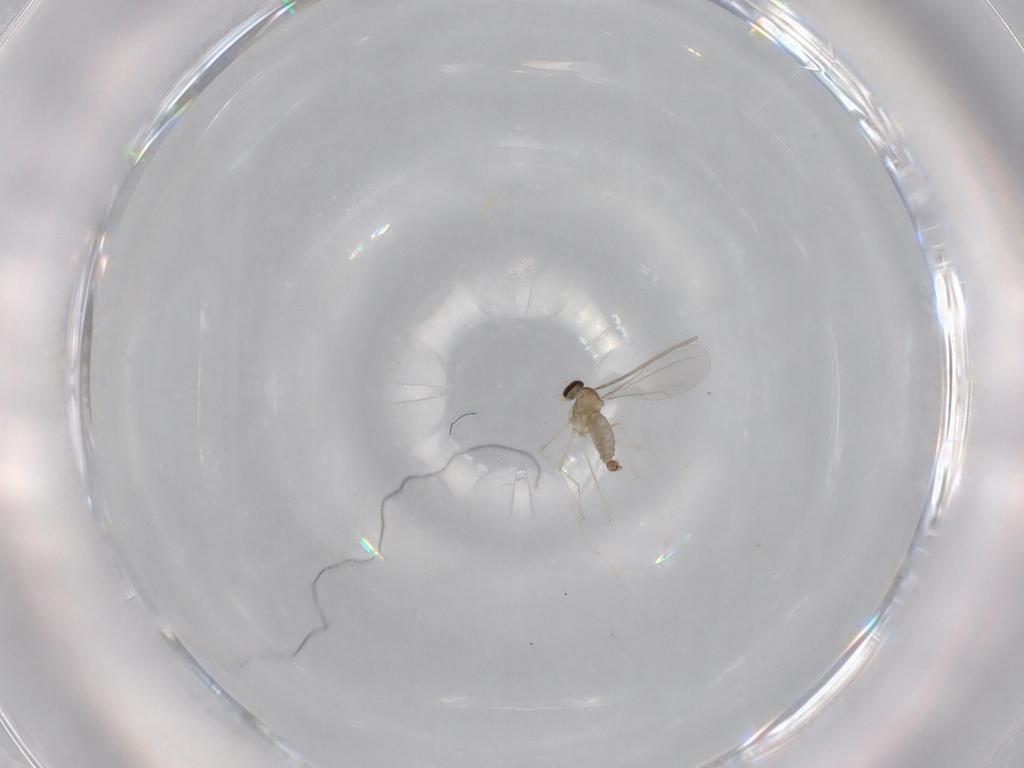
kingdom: Animalia
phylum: Arthropoda
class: Insecta
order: Diptera
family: Cecidomyiidae
